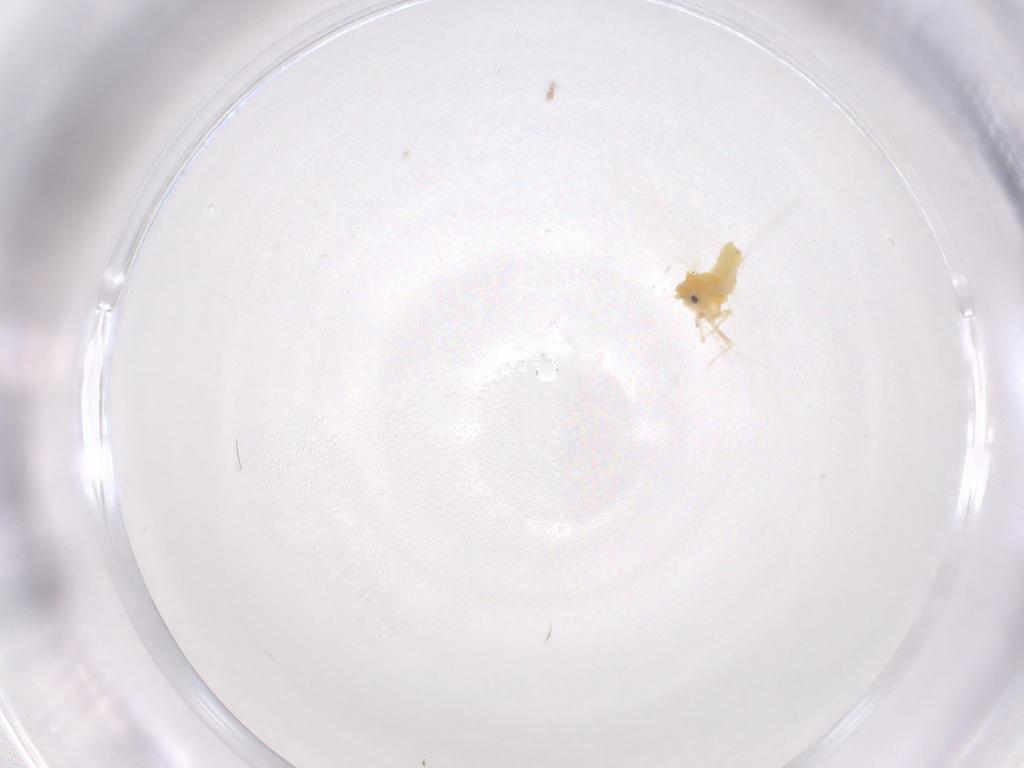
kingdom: Animalia
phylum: Arthropoda
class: Insecta
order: Hemiptera
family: Aleyrodidae
